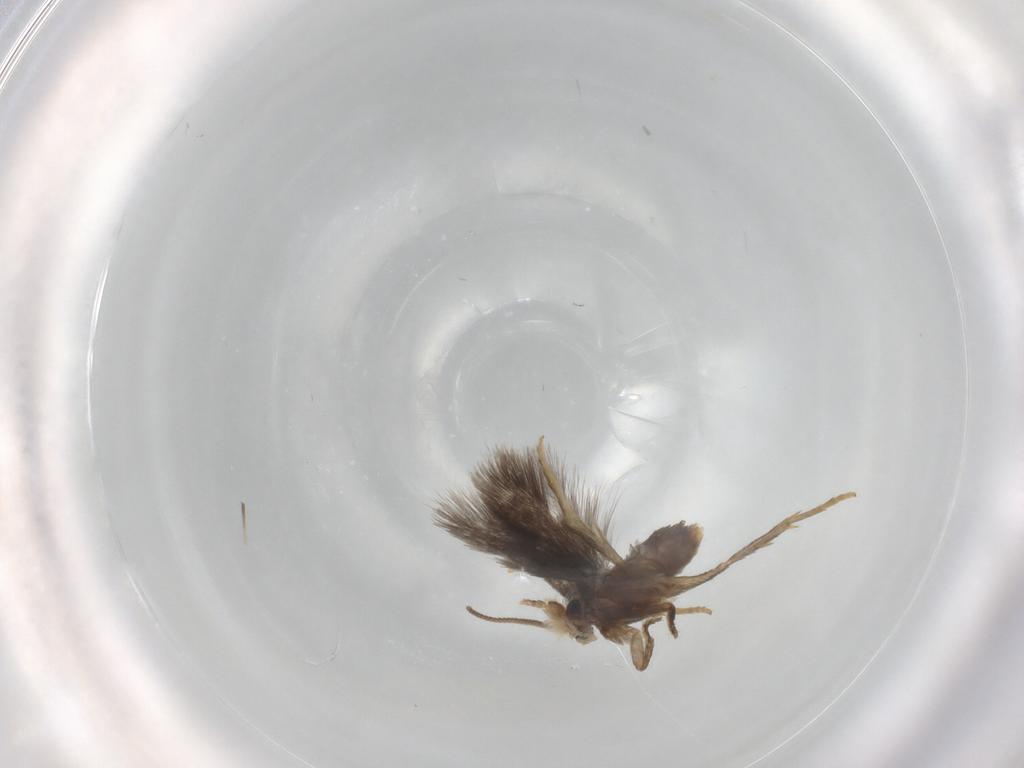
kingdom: Animalia
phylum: Arthropoda
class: Insecta
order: Lepidoptera
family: Nepticulidae
